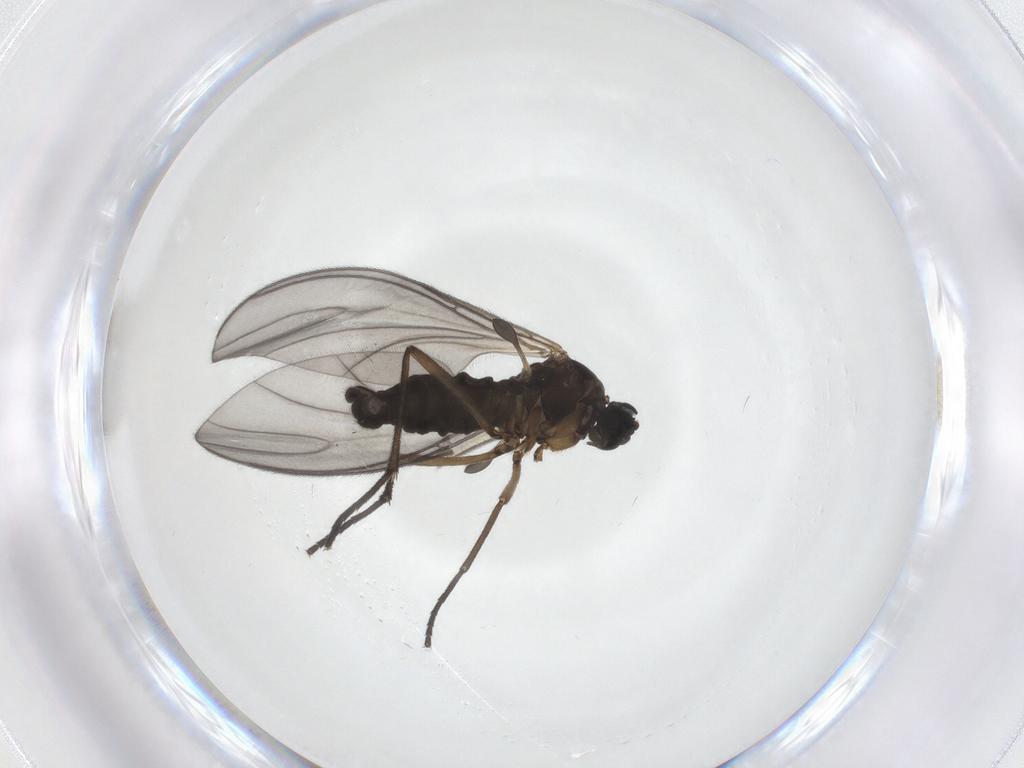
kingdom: Animalia
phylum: Arthropoda
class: Insecta
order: Diptera
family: Sciaridae
